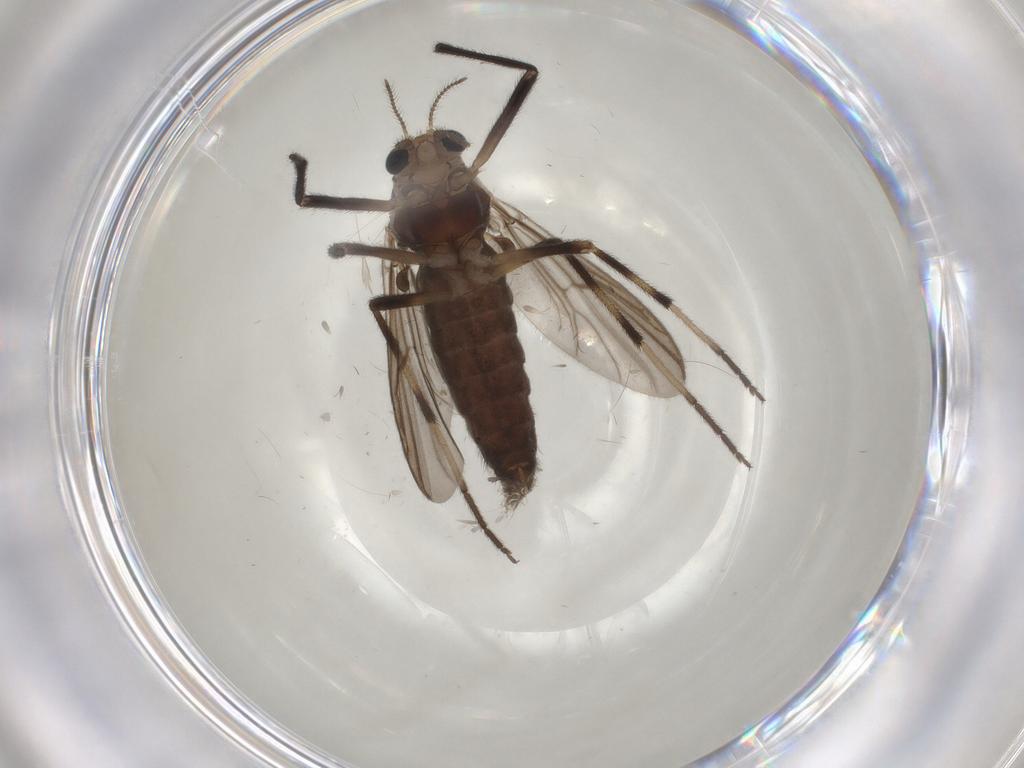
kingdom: Animalia
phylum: Arthropoda
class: Insecta
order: Diptera
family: Chironomidae
